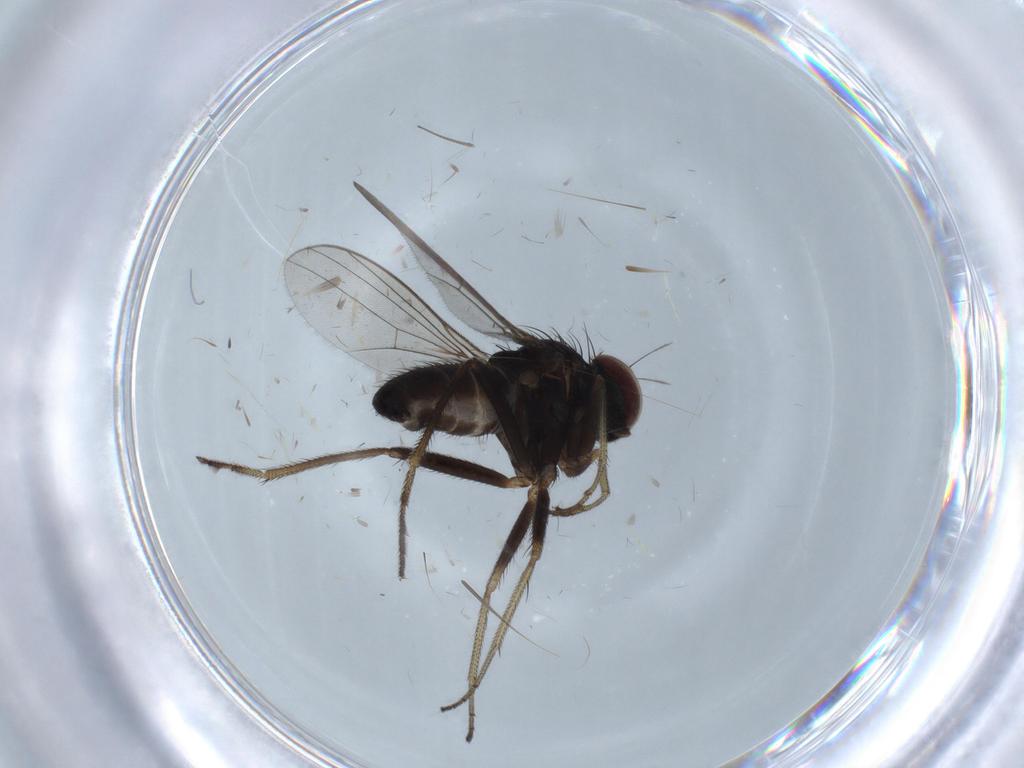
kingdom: Animalia
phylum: Arthropoda
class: Insecta
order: Diptera
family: Chironomidae
